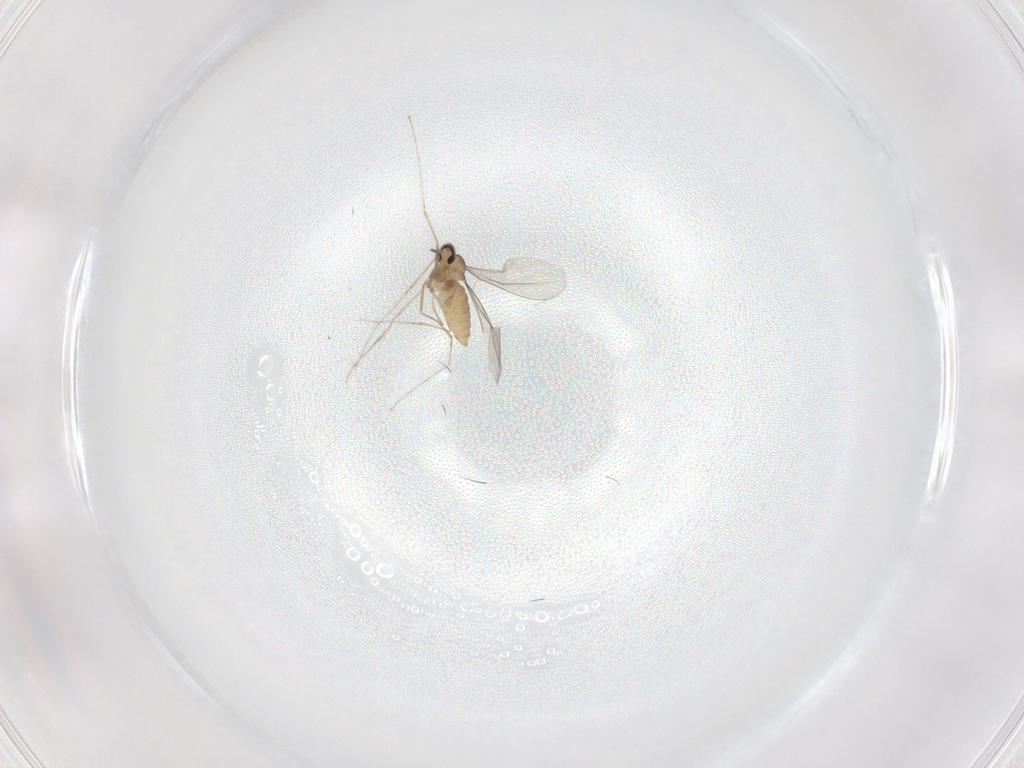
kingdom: Animalia
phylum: Arthropoda
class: Insecta
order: Diptera
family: Cecidomyiidae
